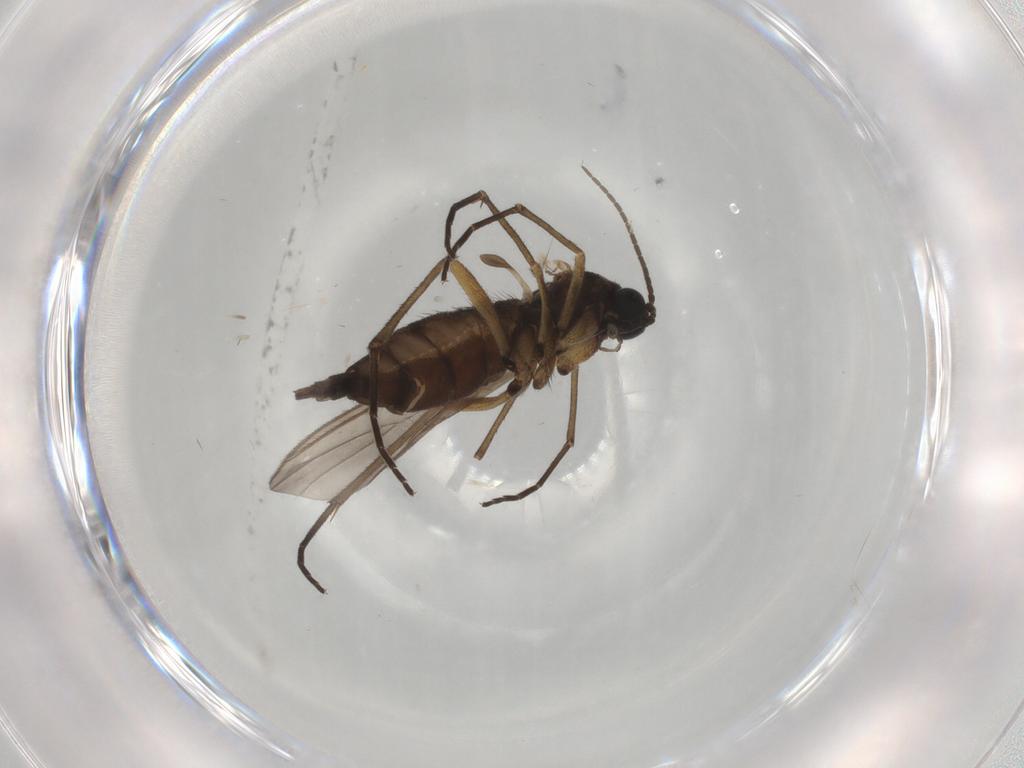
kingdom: Animalia
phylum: Arthropoda
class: Insecta
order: Diptera
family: Sciaridae
